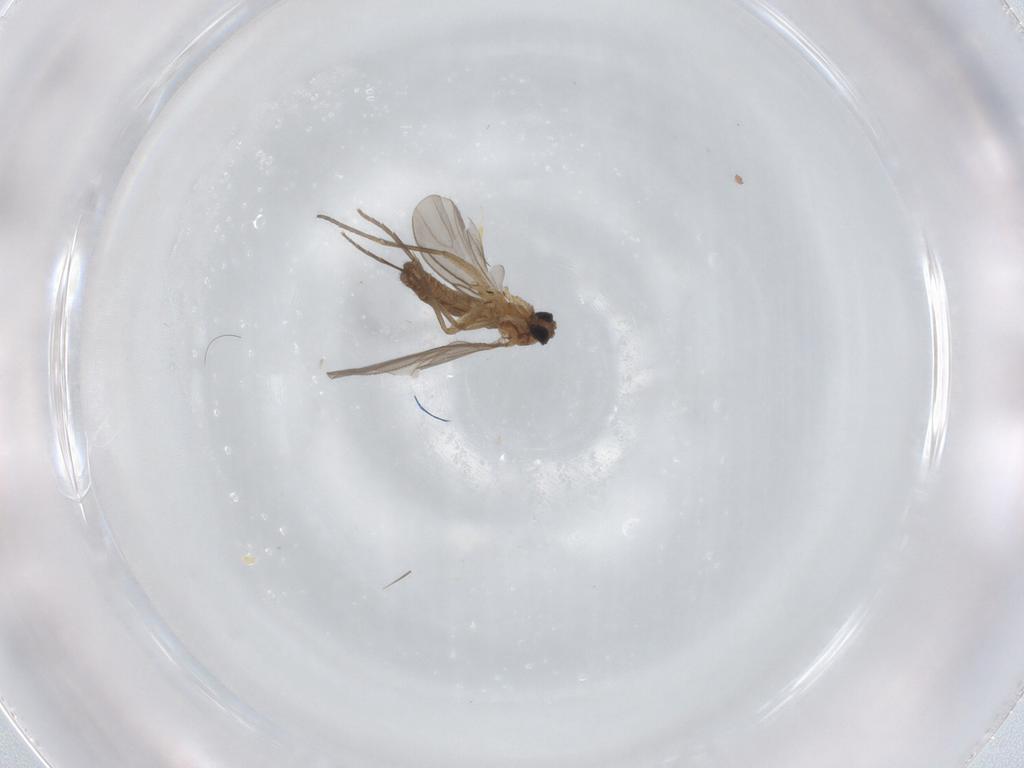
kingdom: Animalia
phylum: Arthropoda
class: Insecta
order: Diptera
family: Sciaridae
